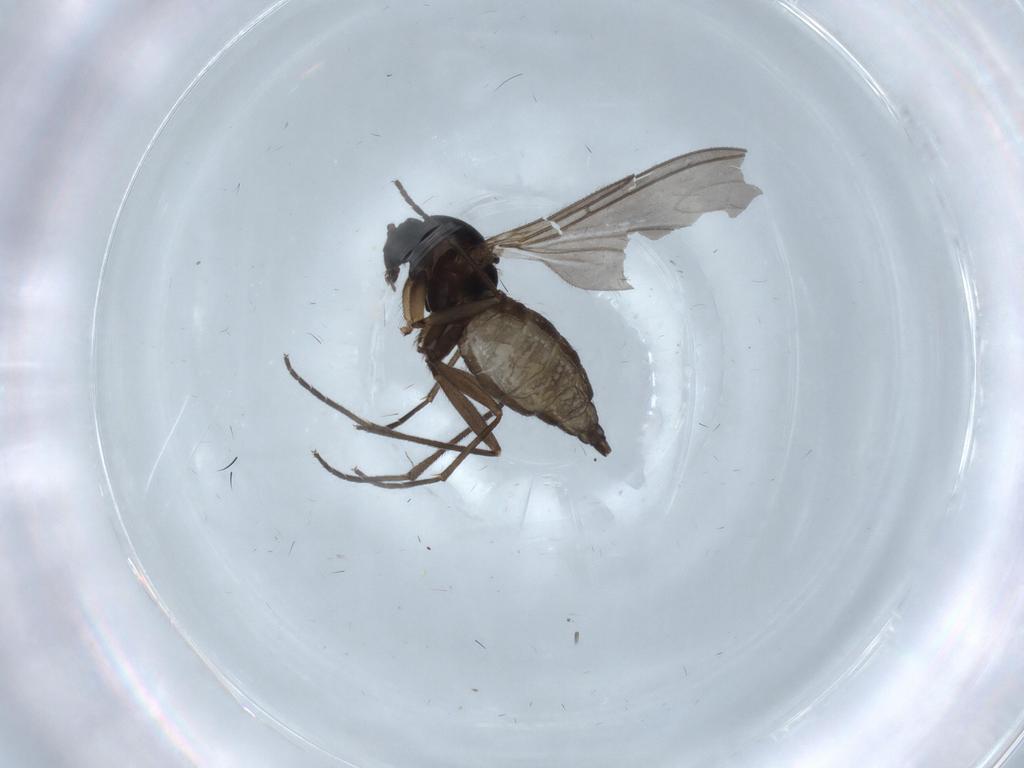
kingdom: Animalia
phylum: Arthropoda
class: Insecta
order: Diptera
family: Sciaridae
